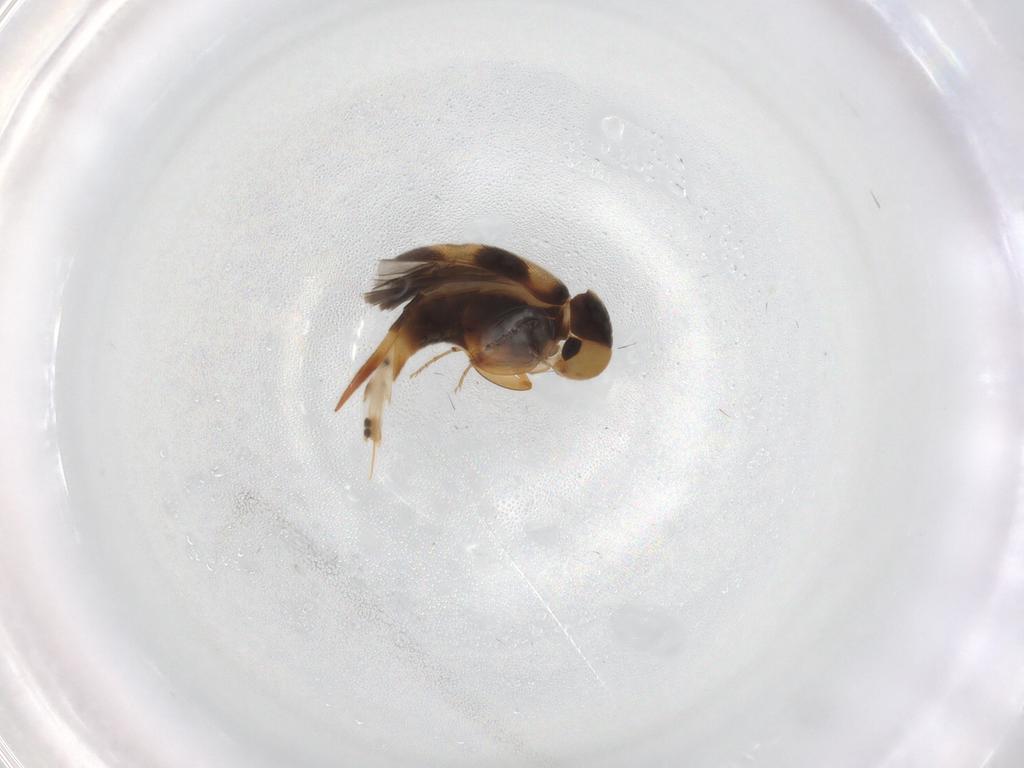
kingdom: Animalia
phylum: Arthropoda
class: Insecta
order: Coleoptera
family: Mordellidae
